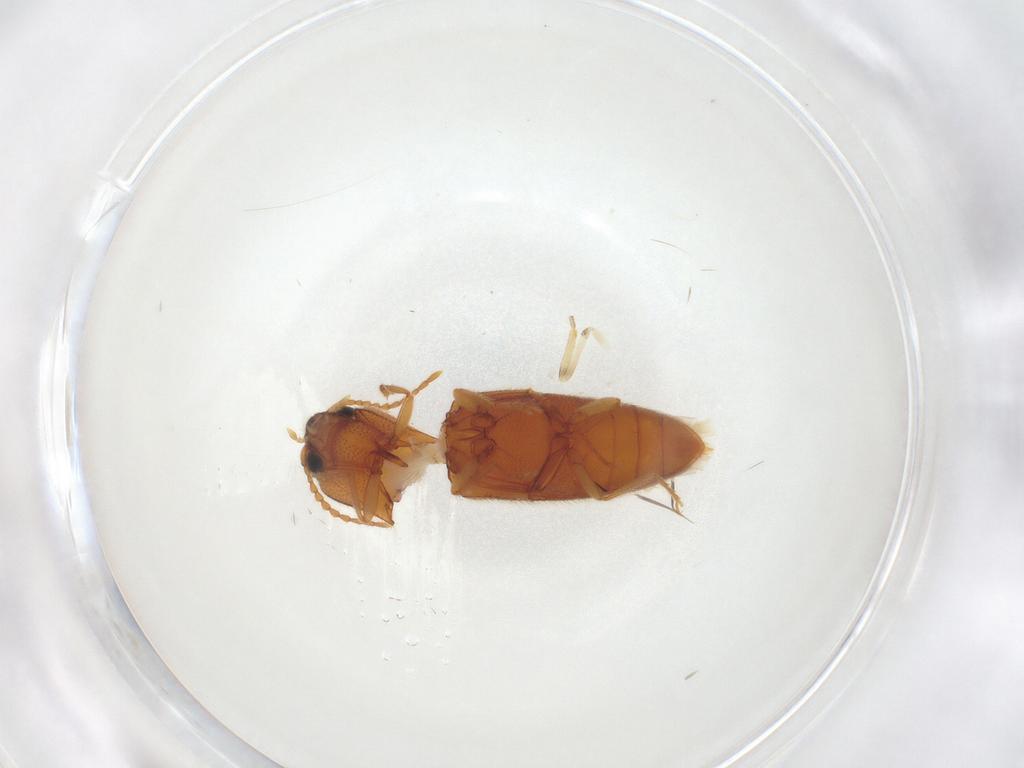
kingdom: Animalia
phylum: Arthropoda
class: Insecta
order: Coleoptera
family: Elateridae
